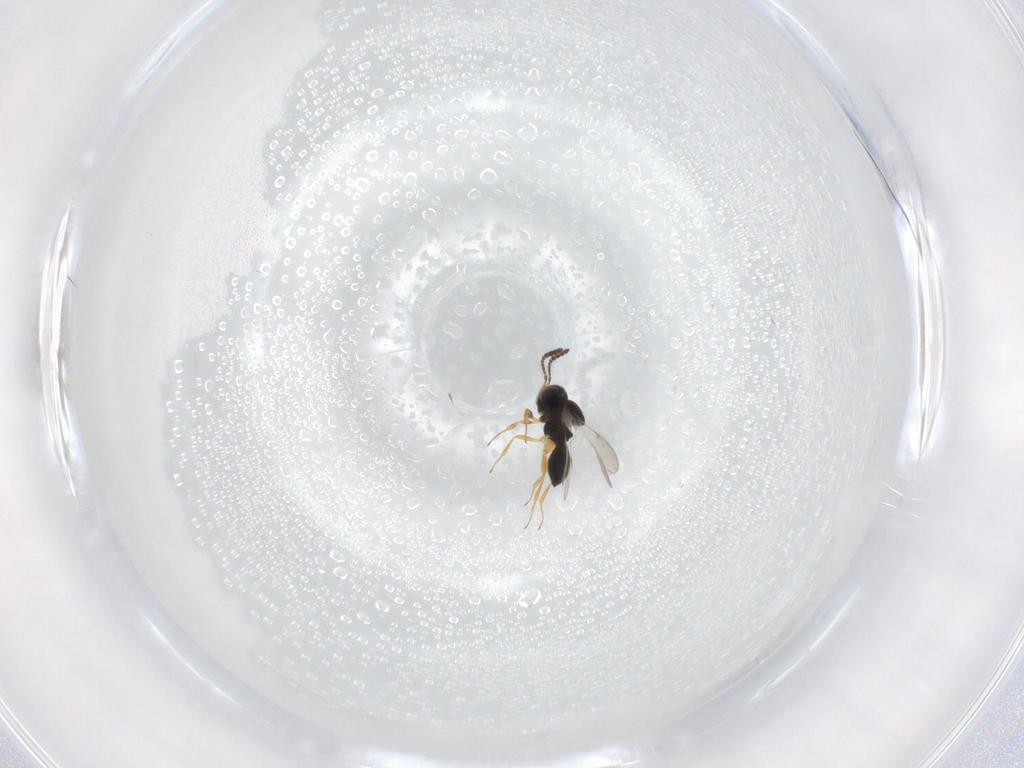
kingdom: Animalia
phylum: Arthropoda
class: Insecta
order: Hymenoptera
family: Scelionidae
